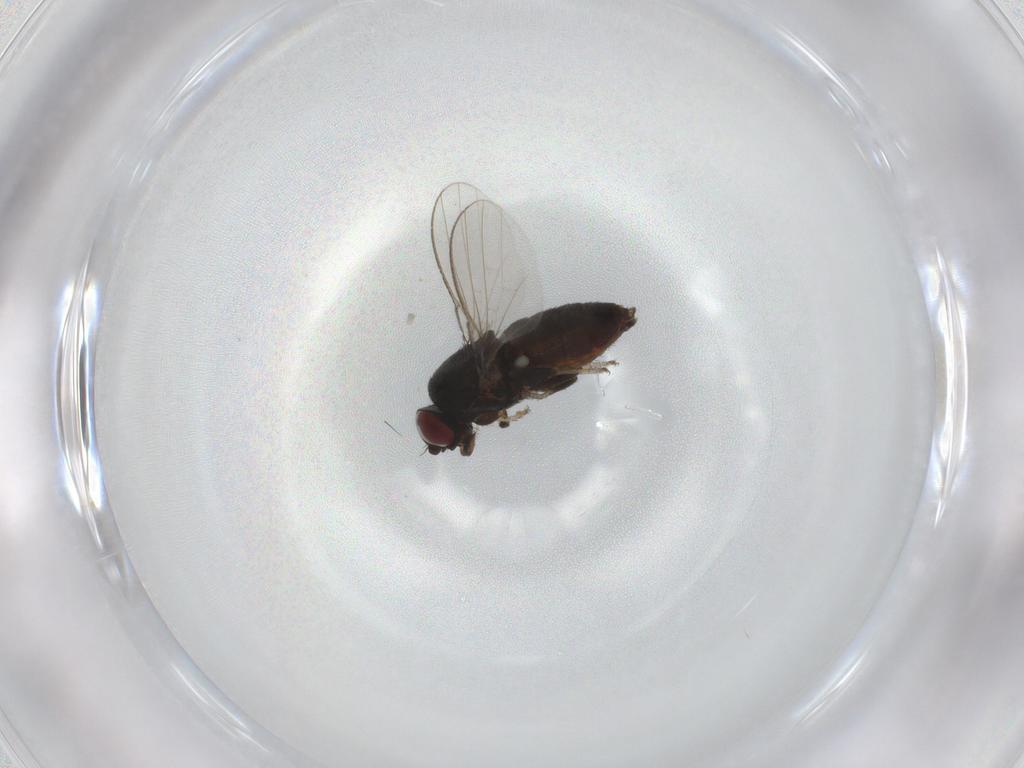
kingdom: Animalia
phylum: Arthropoda
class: Insecta
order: Diptera
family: Milichiidae
